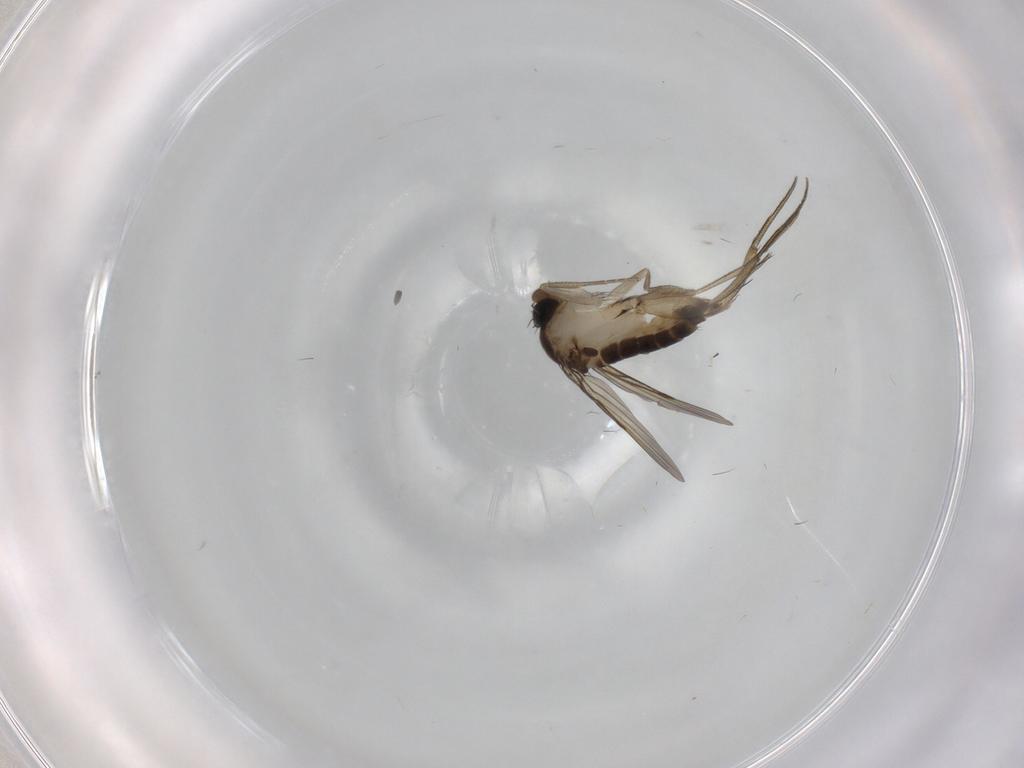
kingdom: Animalia
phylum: Arthropoda
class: Insecta
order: Diptera
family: Phoridae
